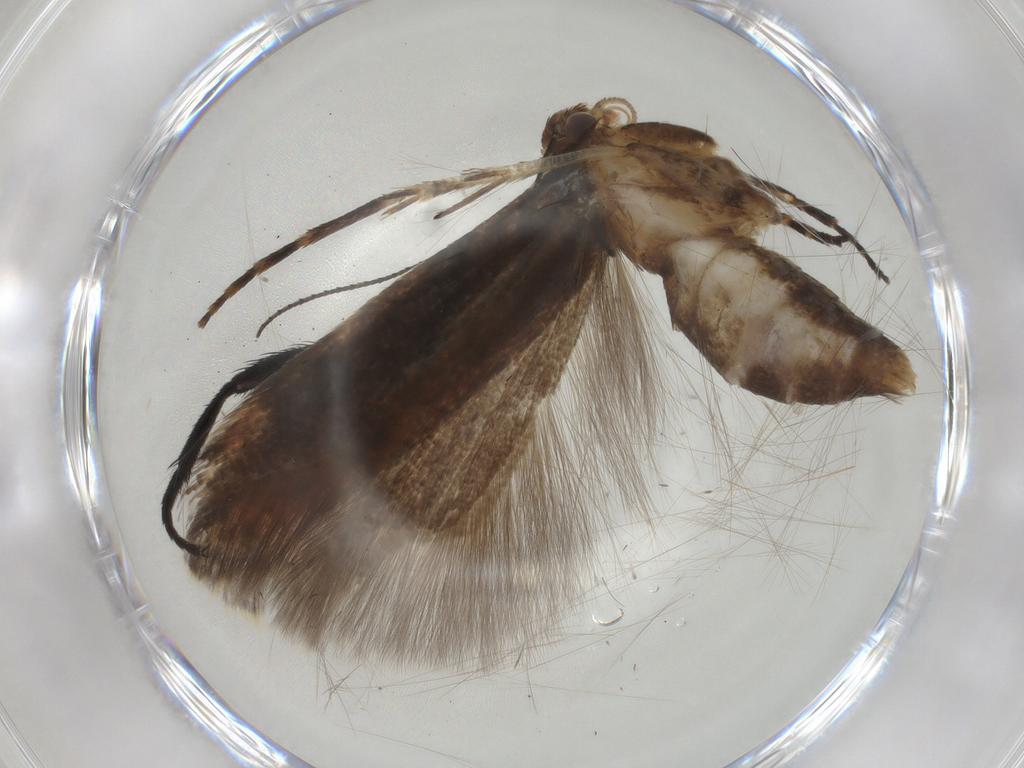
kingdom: Animalia
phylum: Arthropoda
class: Insecta
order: Lepidoptera
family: Gelechiidae
